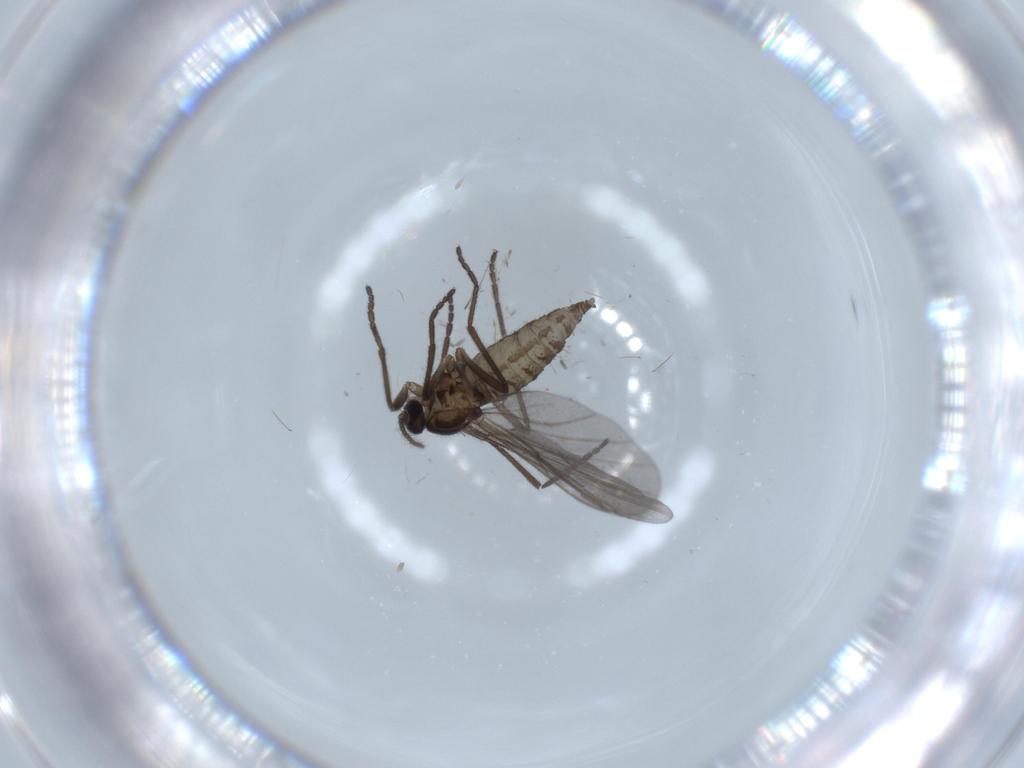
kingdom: Animalia
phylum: Arthropoda
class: Insecta
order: Diptera
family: Cecidomyiidae
